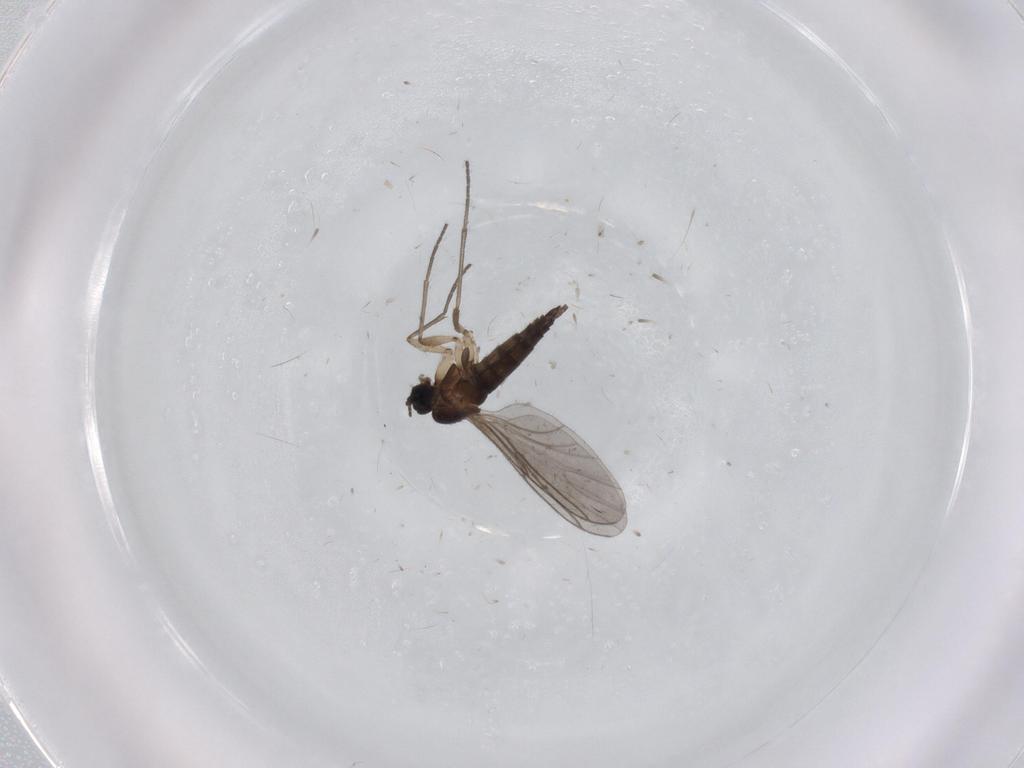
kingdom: Animalia
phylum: Arthropoda
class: Insecta
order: Diptera
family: Sciaridae
